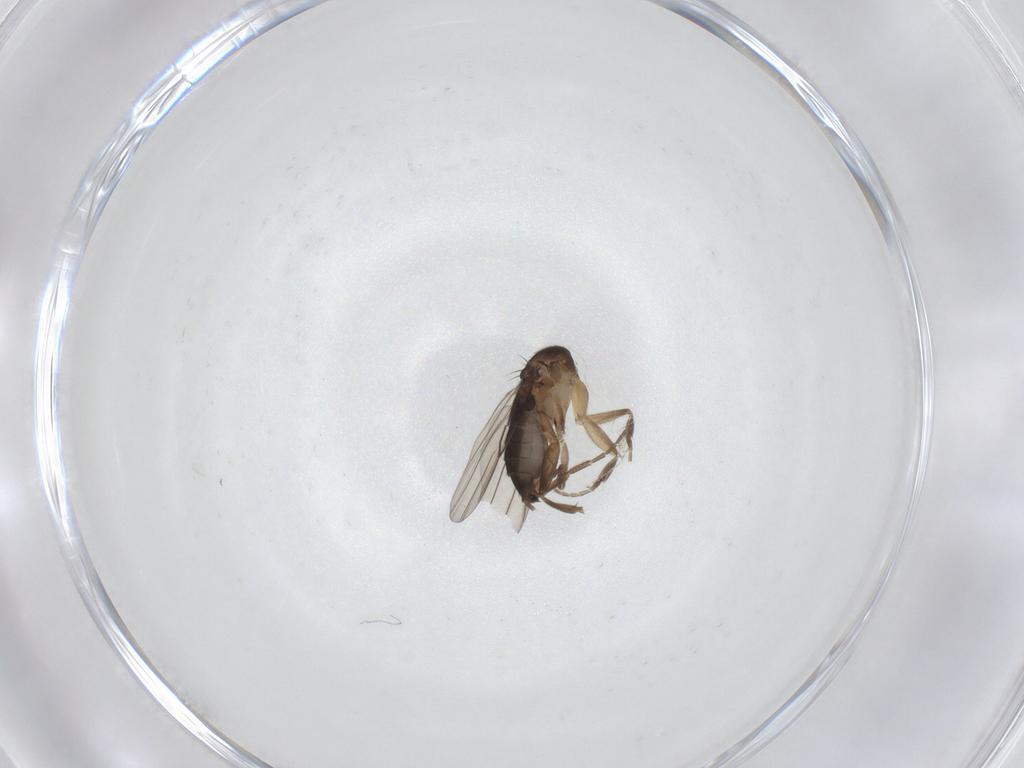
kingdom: Animalia
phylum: Arthropoda
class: Insecta
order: Diptera
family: Phoridae
